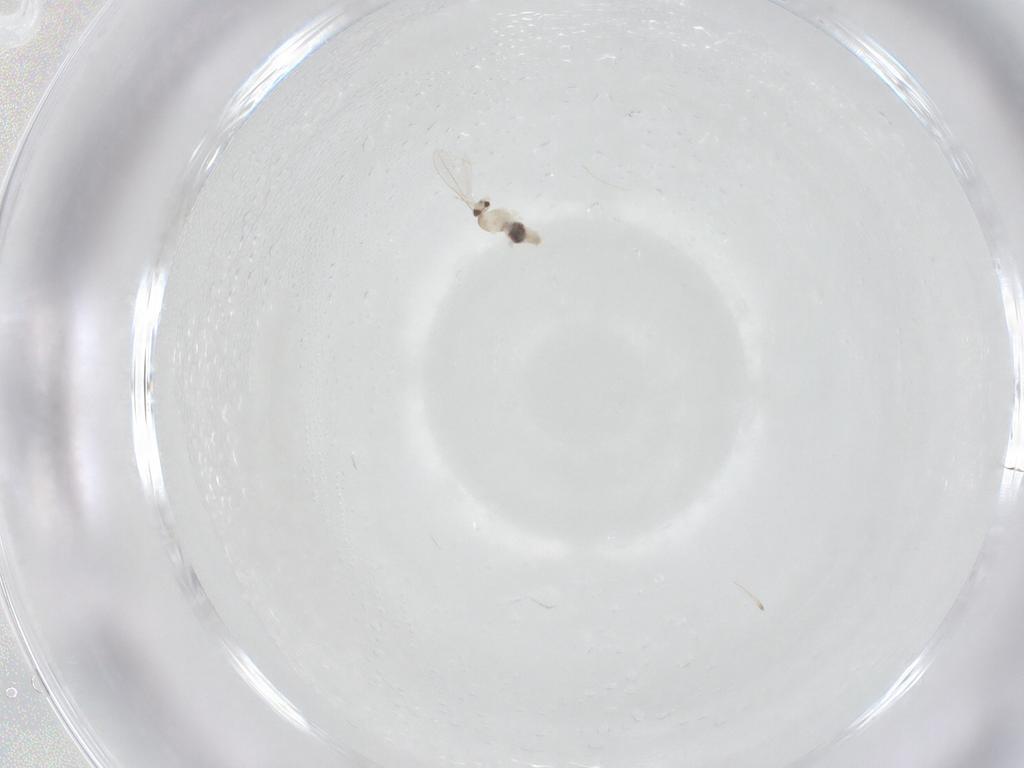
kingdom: Animalia
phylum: Arthropoda
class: Insecta
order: Diptera
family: Cecidomyiidae
